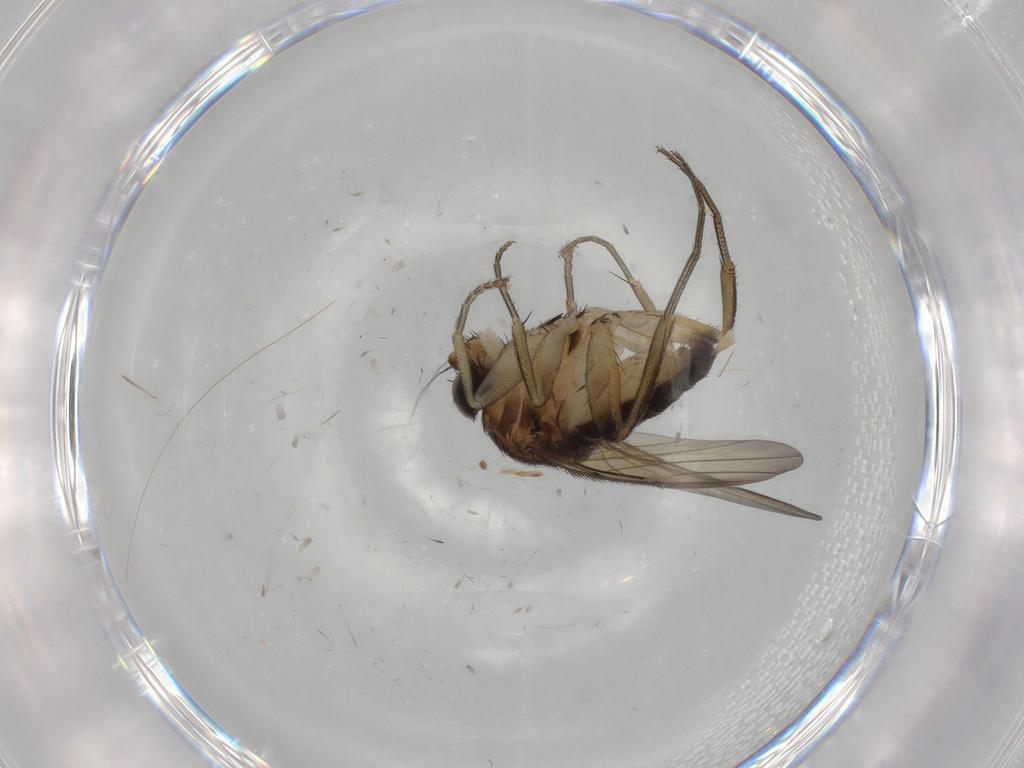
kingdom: Animalia
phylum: Arthropoda
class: Insecta
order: Diptera
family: Phoridae
